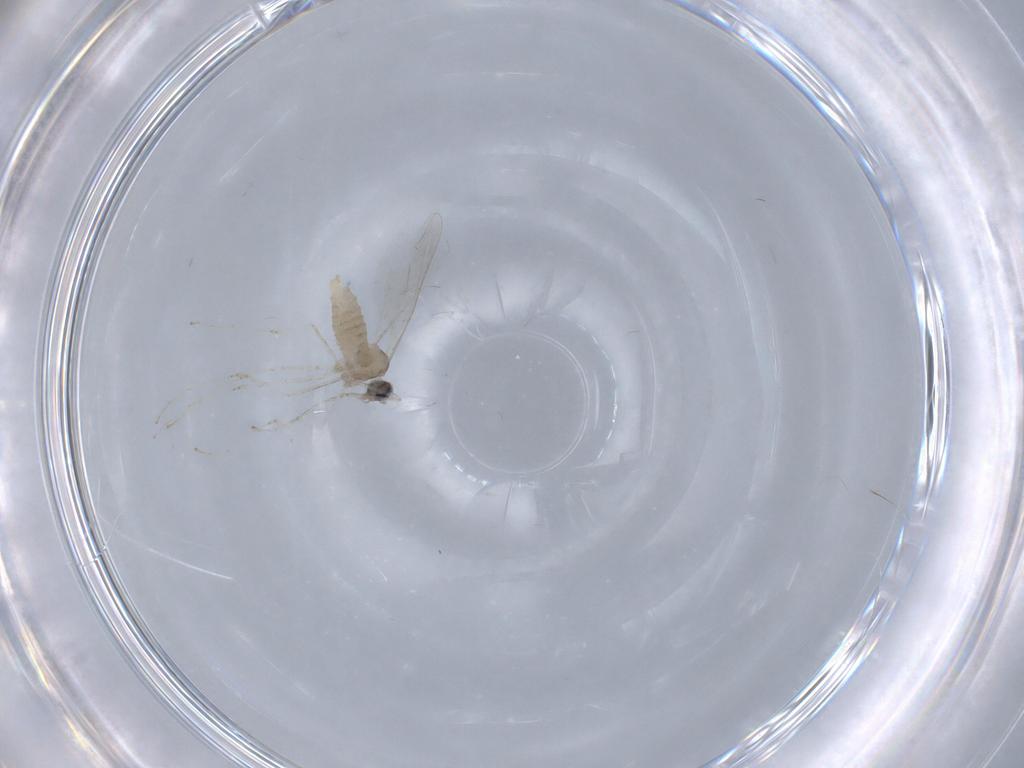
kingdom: Animalia
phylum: Arthropoda
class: Insecta
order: Diptera
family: Cecidomyiidae
